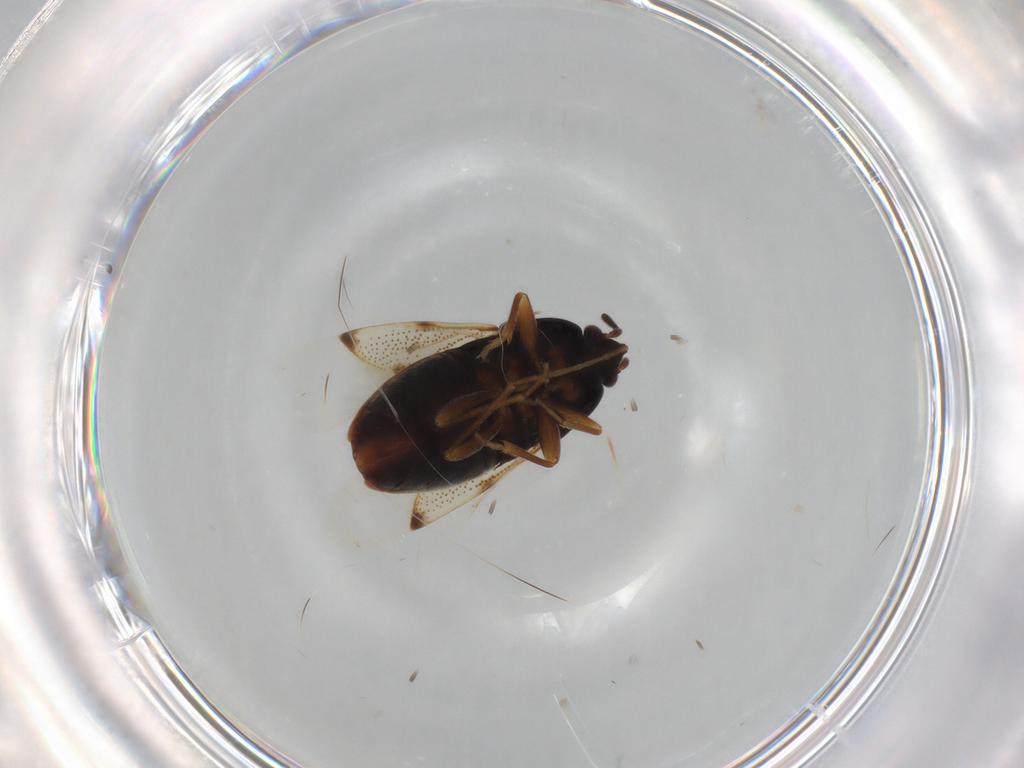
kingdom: Animalia
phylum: Arthropoda
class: Insecta
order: Hemiptera
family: Rhyparochromidae
